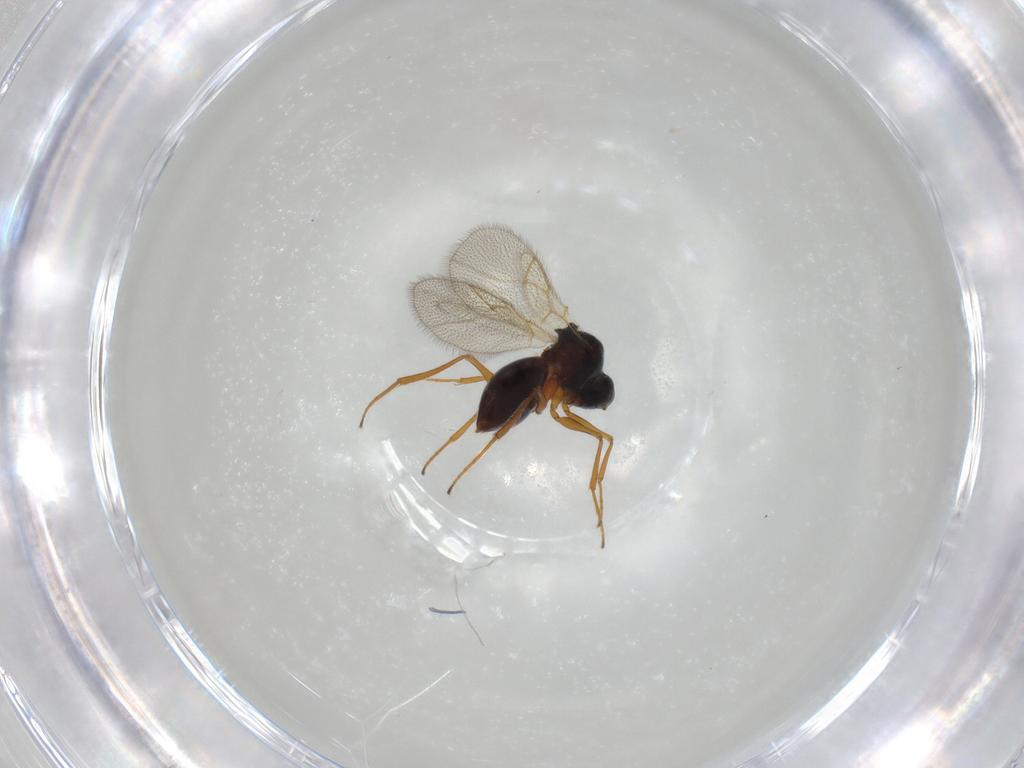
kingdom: Animalia
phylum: Arthropoda
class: Insecta
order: Hymenoptera
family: Figitidae
